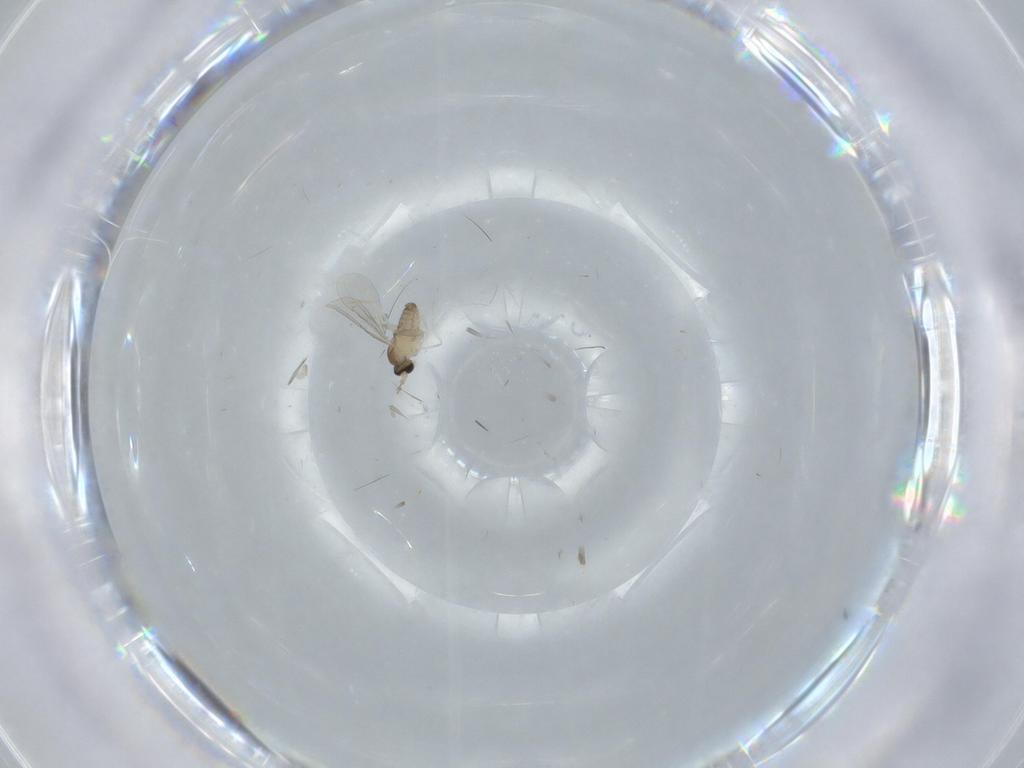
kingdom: Animalia
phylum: Arthropoda
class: Insecta
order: Diptera
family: Cecidomyiidae
